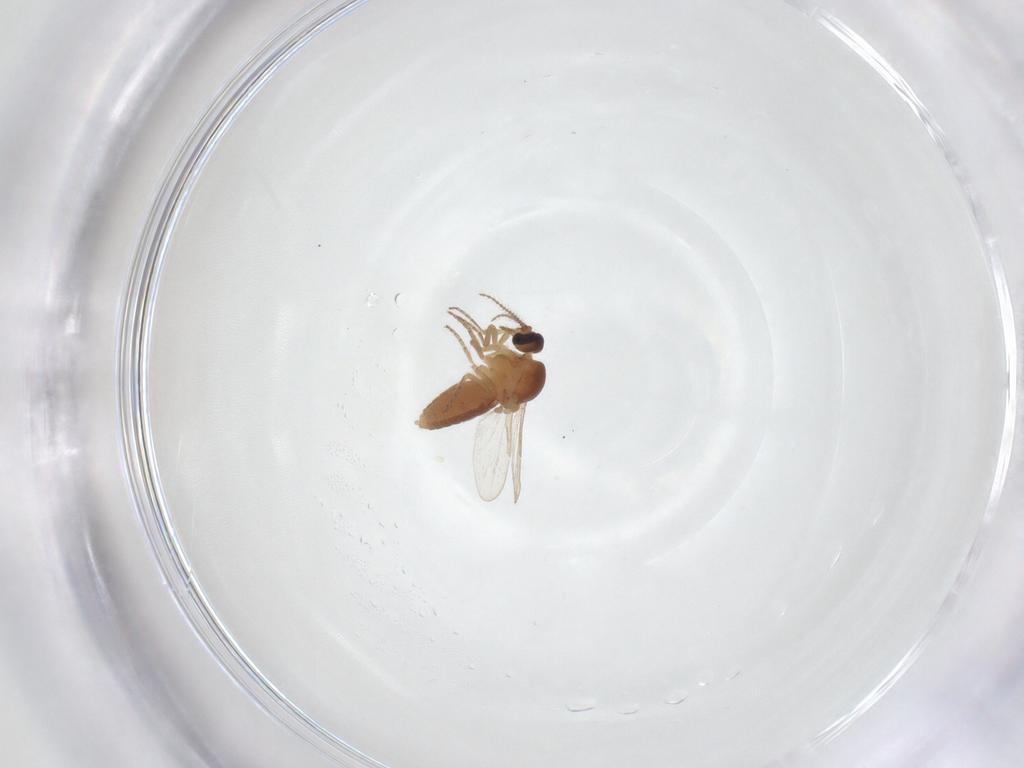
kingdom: Animalia
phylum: Arthropoda
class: Insecta
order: Diptera
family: Ceratopogonidae
